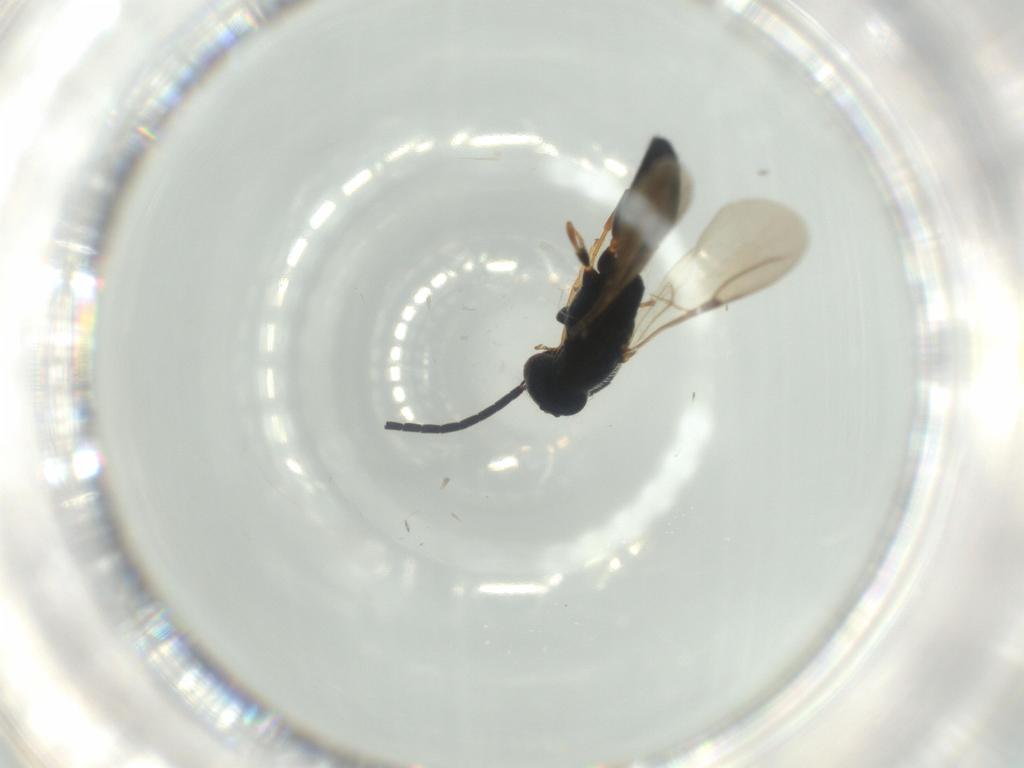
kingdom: Animalia
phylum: Arthropoda
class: Insecta
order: Hymenoptera
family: Bethylidae
